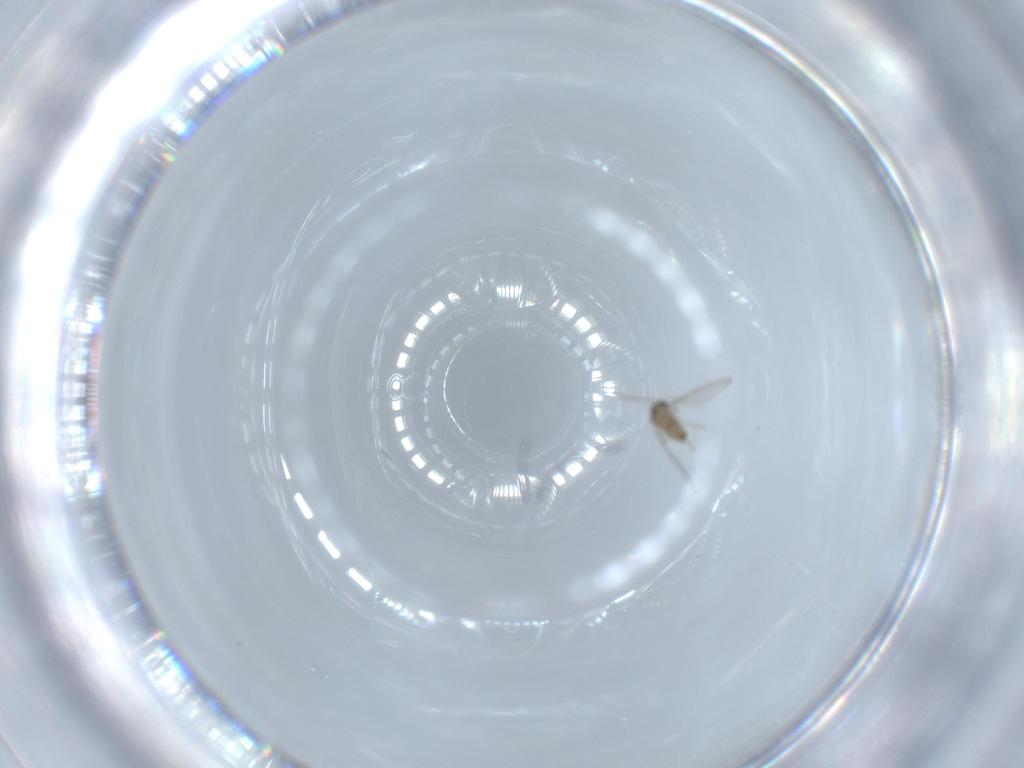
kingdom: Animalia
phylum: Arthropoda
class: Insecta
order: Diptera
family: Cecidomyiidae
